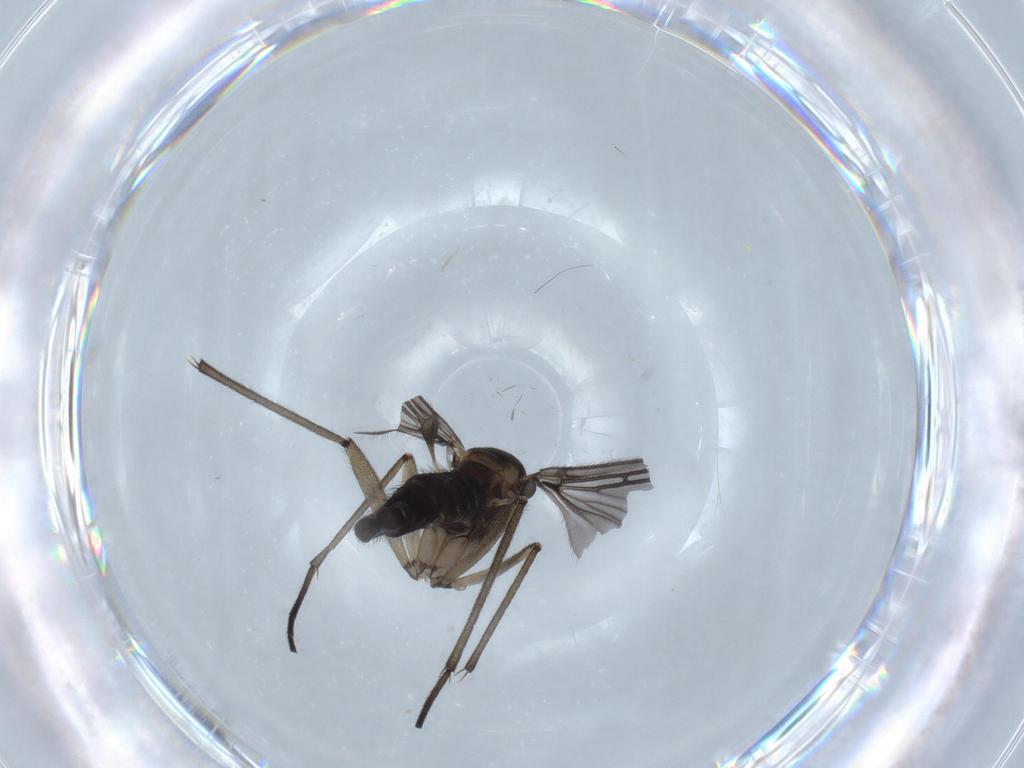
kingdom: Animalia
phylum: Arthropoda
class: Insecta
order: Diptera
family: Sciaridae
